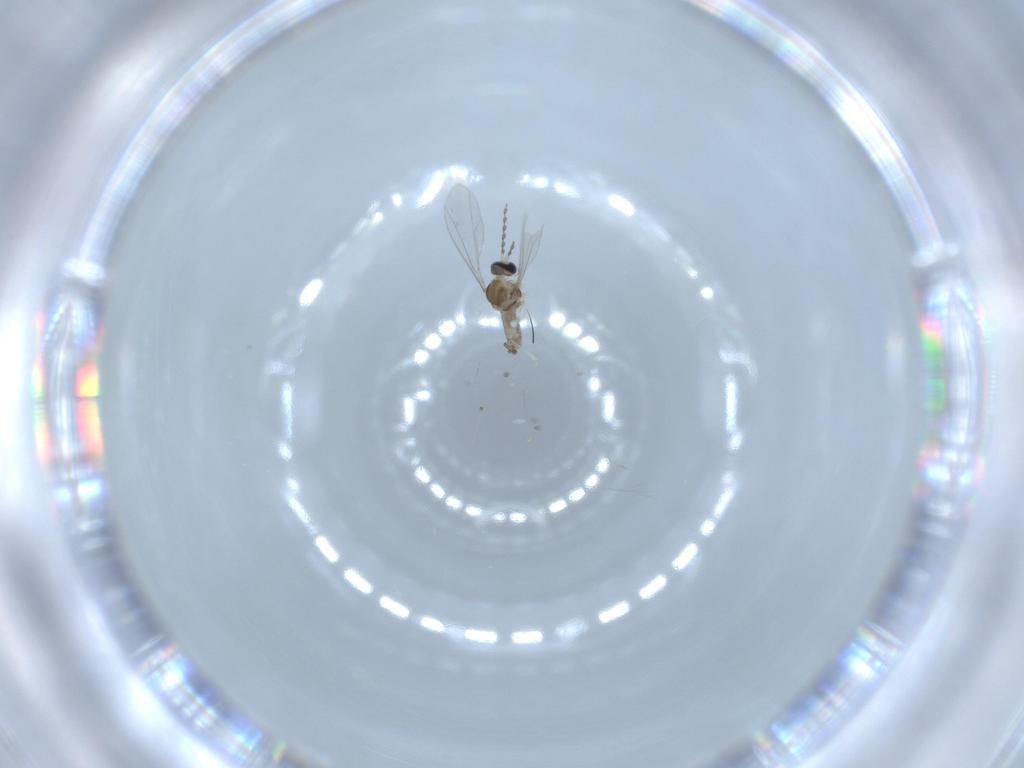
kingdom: Animalia
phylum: Arthropoda
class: Insecta
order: Diptera
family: Cecidomyiidae
